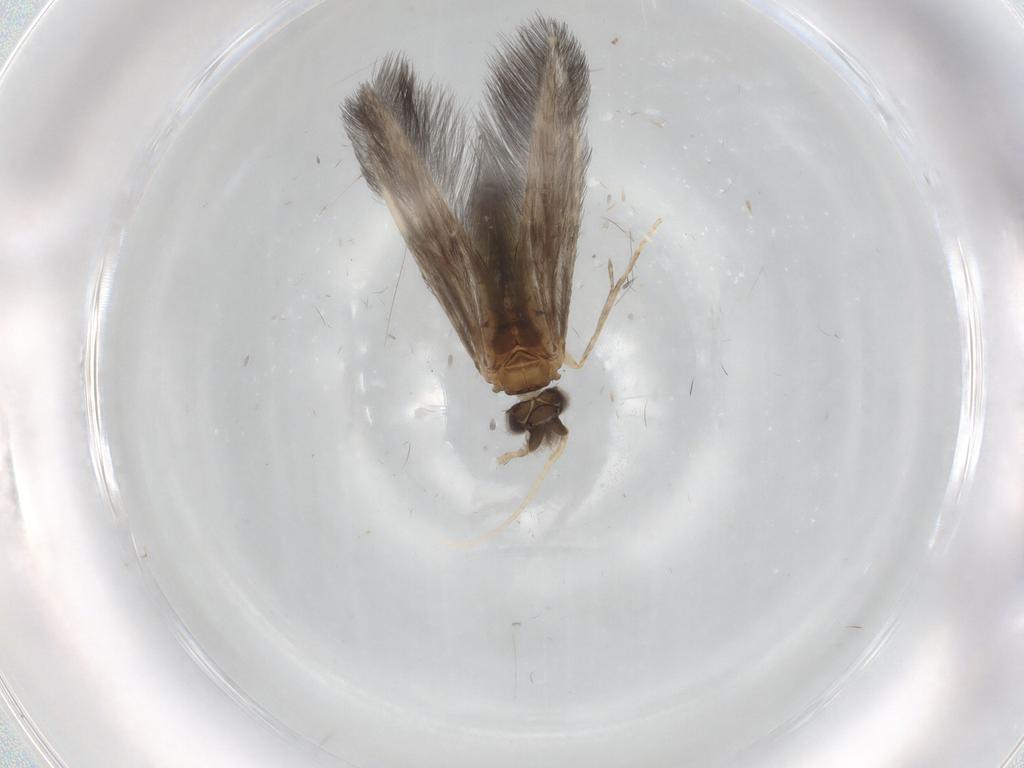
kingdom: Animalia
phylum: Arthropoda
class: Insecta
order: Trichoptera
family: Hydroptilidae
